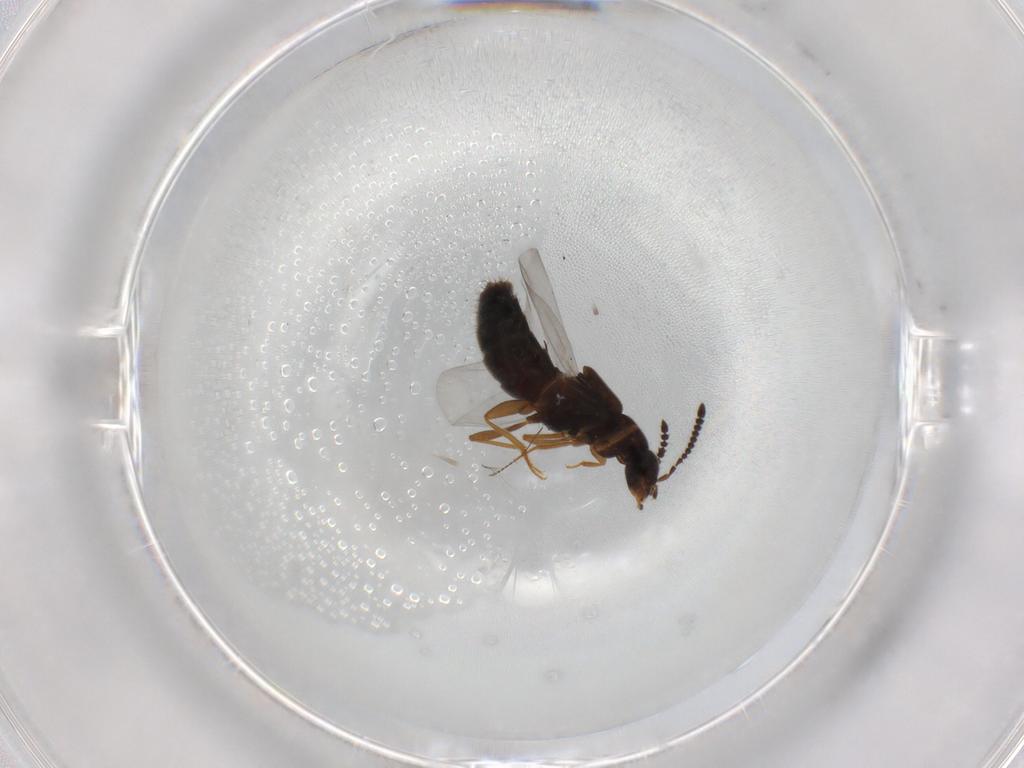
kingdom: Animalia
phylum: Arthropoda
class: Insecta
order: Coleoptera
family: Staphylinidae
